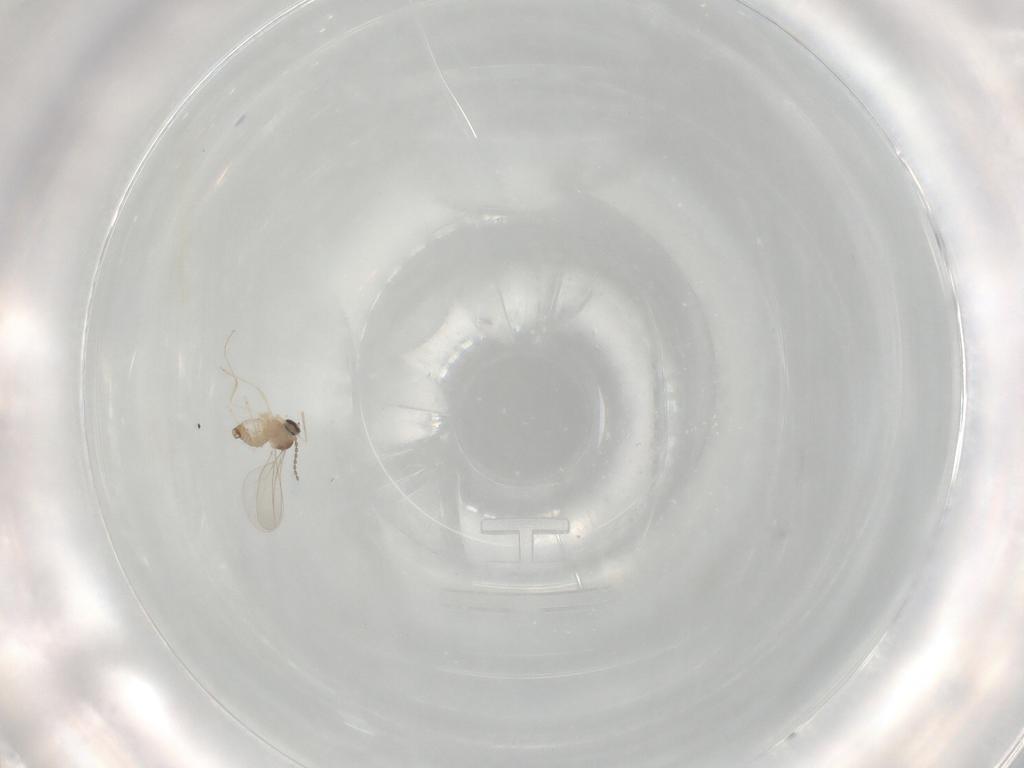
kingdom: Animalia
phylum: Arthropoda
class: Insecta
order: Diptera
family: Cecidomyiidae
